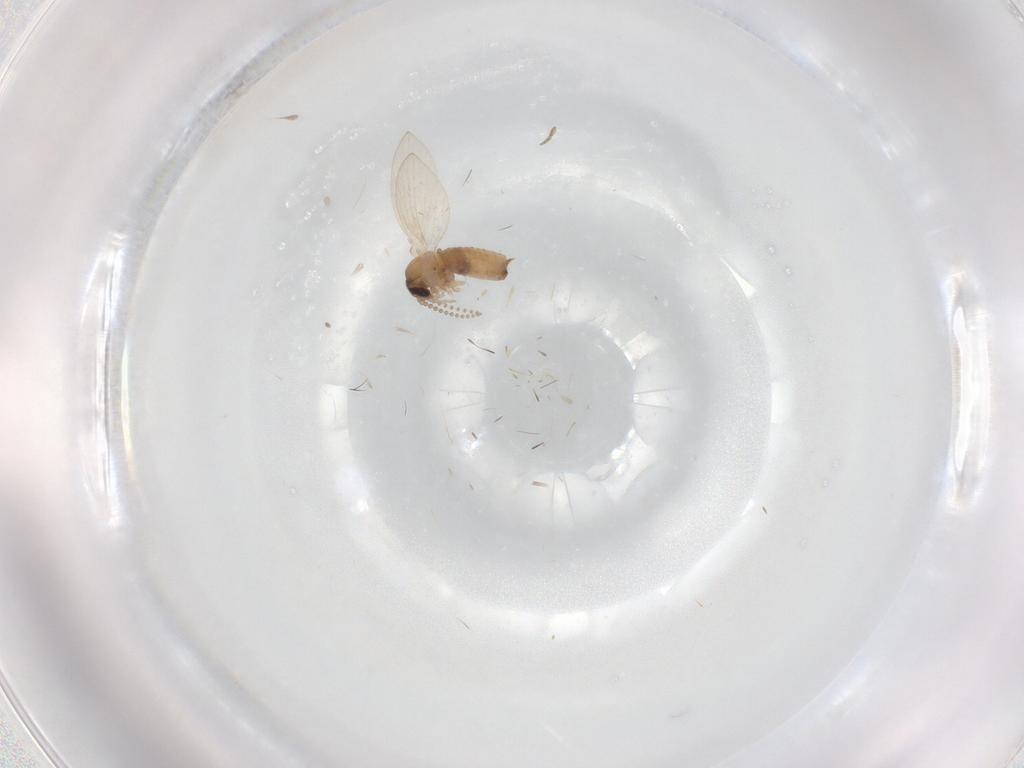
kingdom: Animalia
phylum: Arthropoda
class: Insecta
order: Diptera
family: Psychodidae
